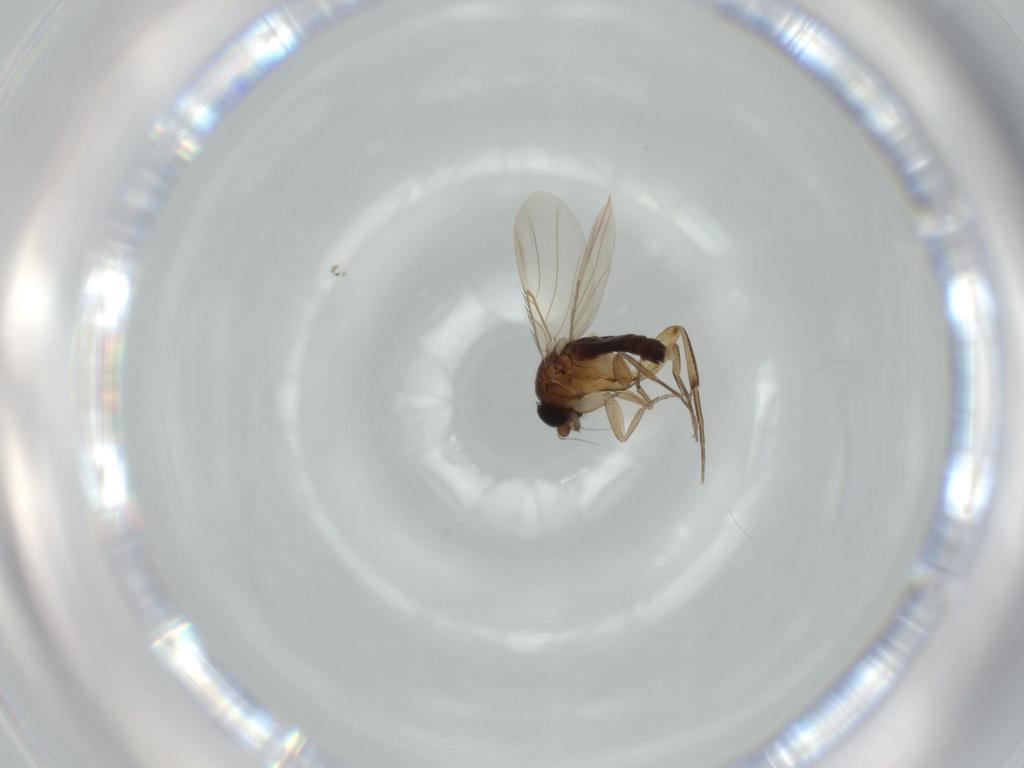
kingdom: Animalia
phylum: Arthropoda
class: Insecta
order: Diptera
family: Phoridae
